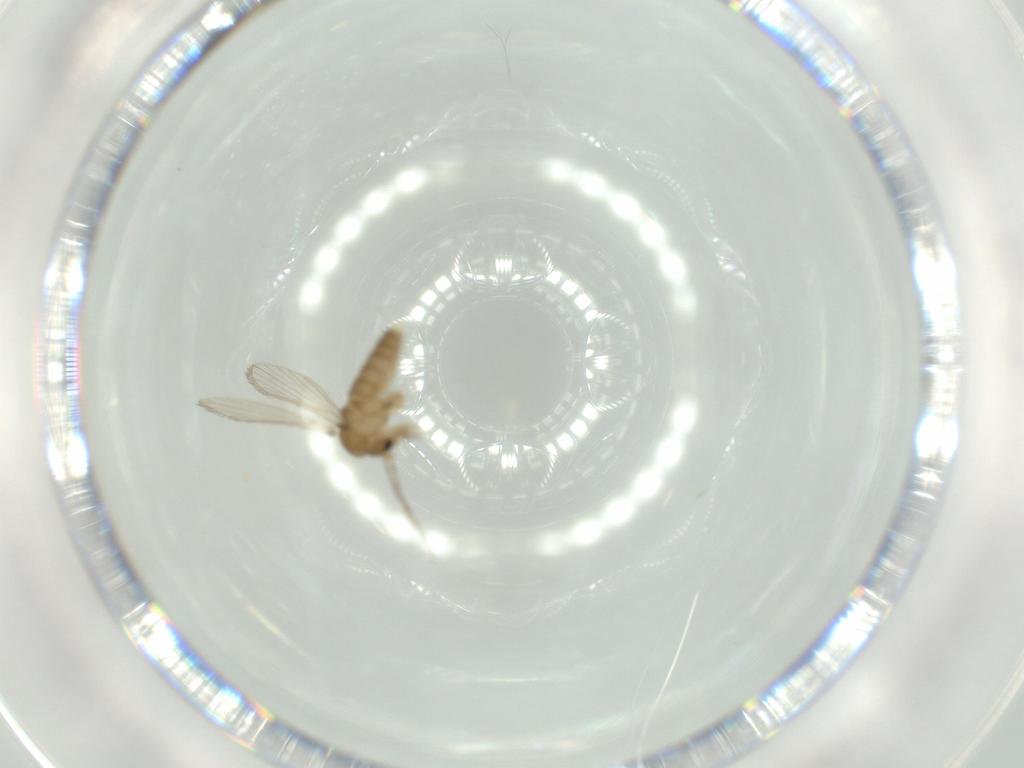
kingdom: Animalia
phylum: Arthropoda
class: Insecta
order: Diptera
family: Psychodidae
